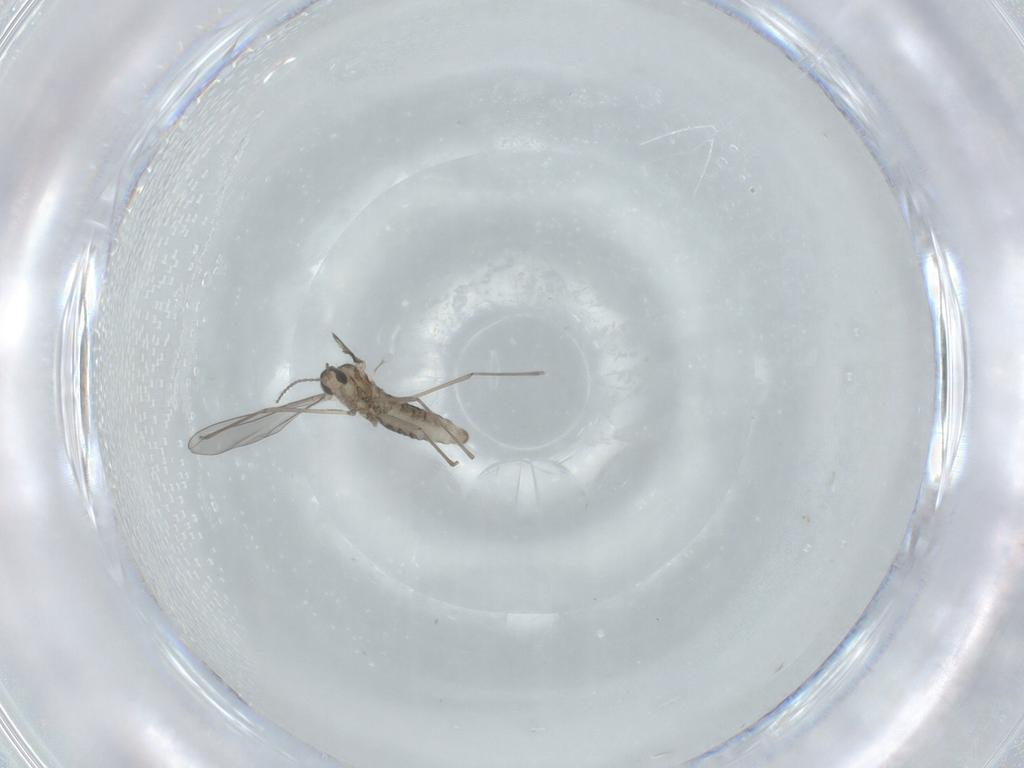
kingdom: Animalia
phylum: Arthropoda
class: Insecta
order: Diptera
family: Cecidomyiidae
